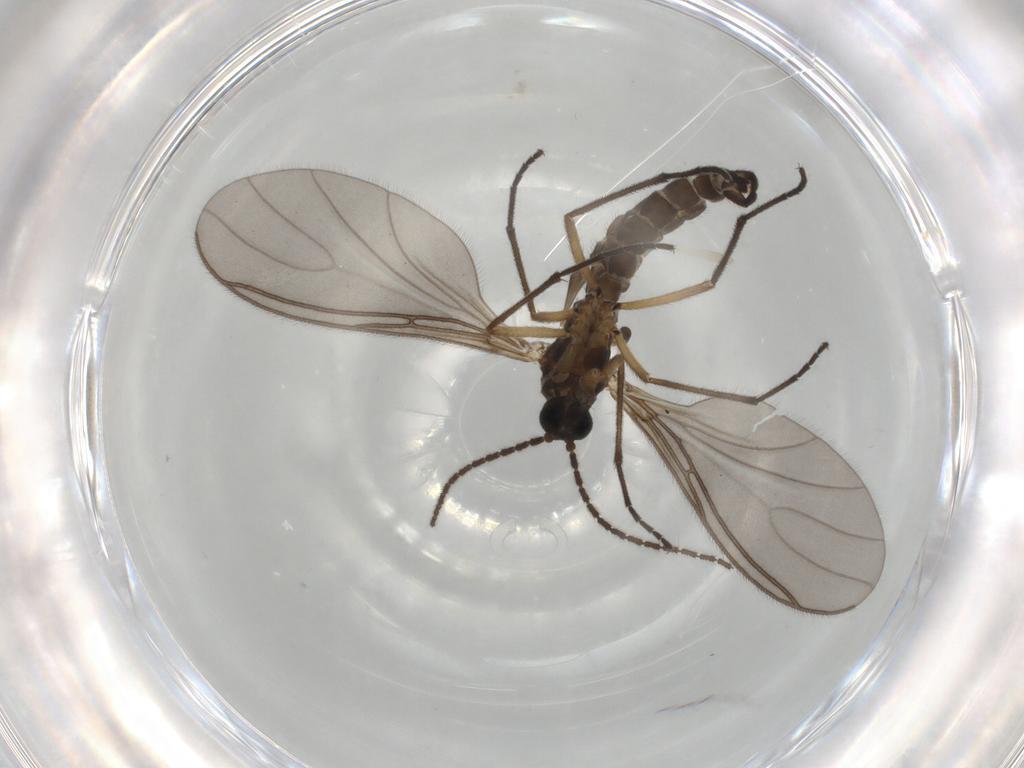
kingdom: Animalia
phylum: Arthropoda
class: Insecta
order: Diptera
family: Sciaridae
